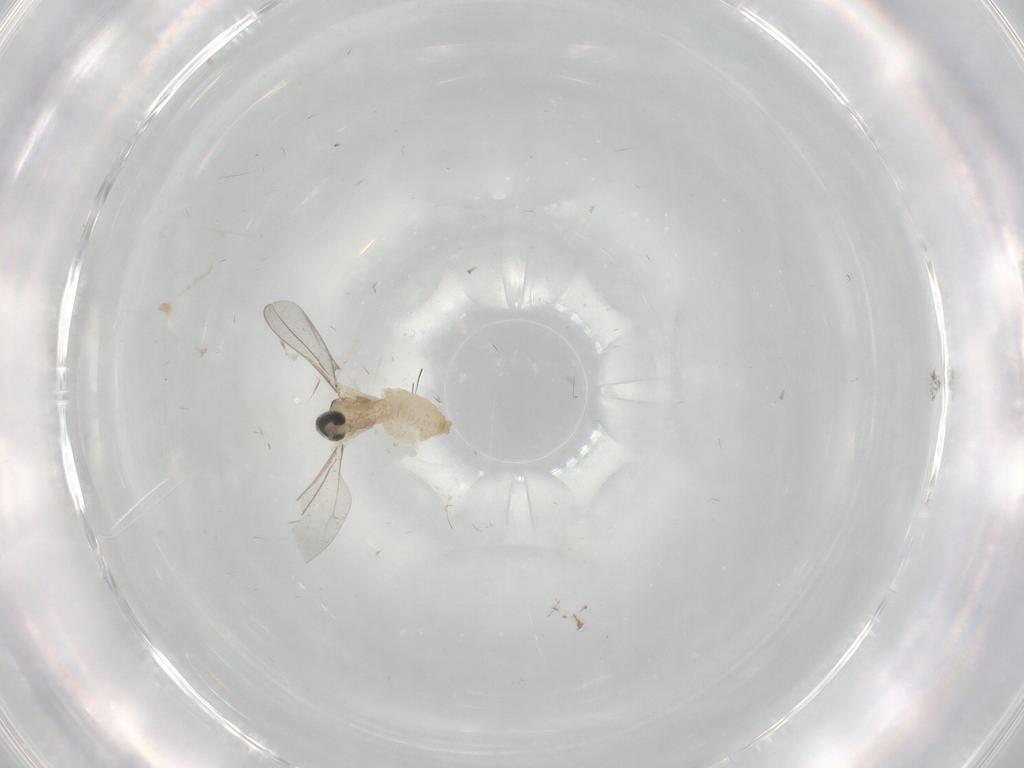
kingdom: Animalia
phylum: Arthropoda
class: Insecta
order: Diptera
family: Cecidomyiidae
